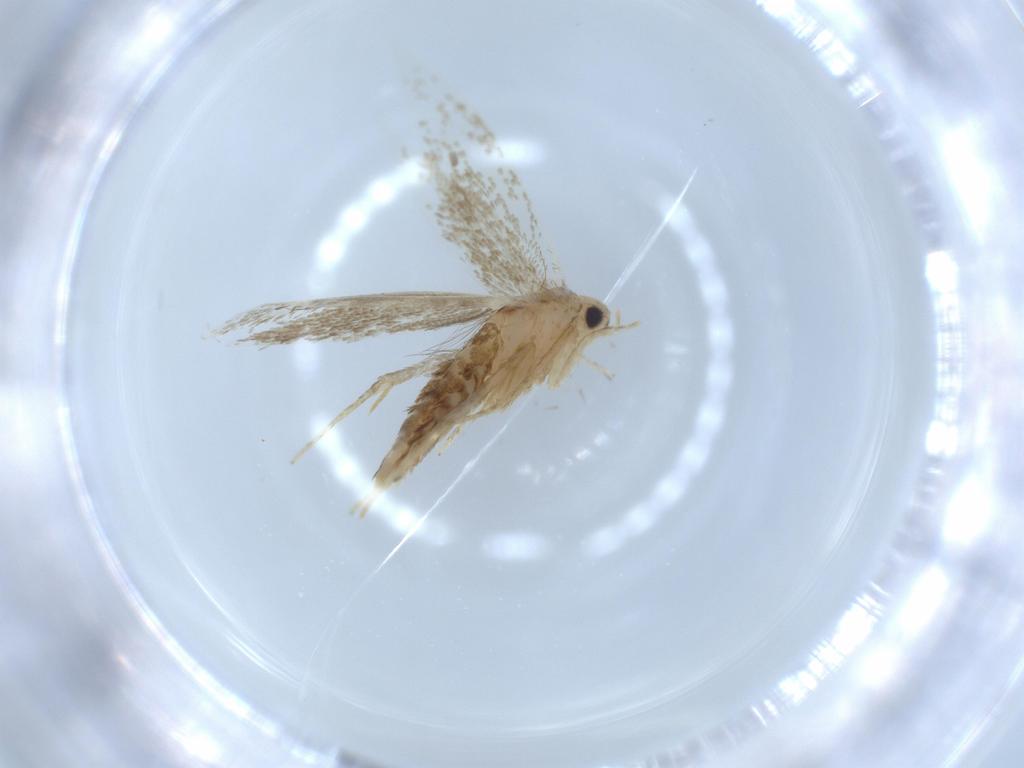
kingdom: Animalia
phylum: Arthropoda
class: Insecta
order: Lepidoptera
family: Tineidae
